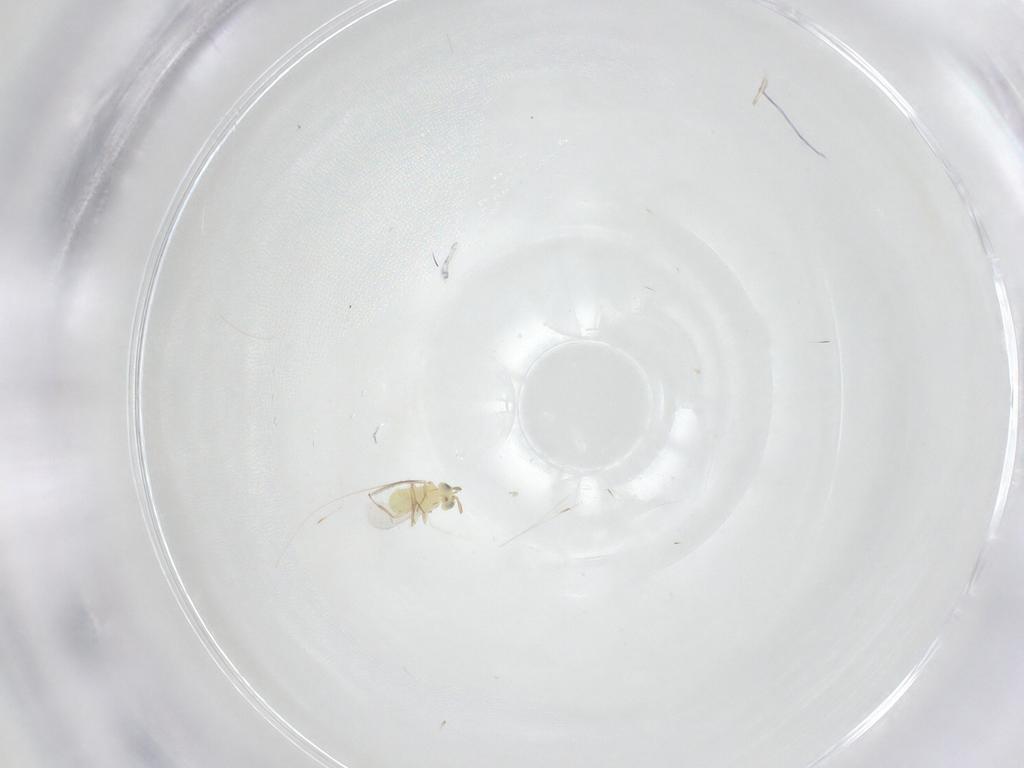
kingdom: Animalia
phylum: Arthropoda
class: Insecta
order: Hymenoptera
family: Aphelinidae
